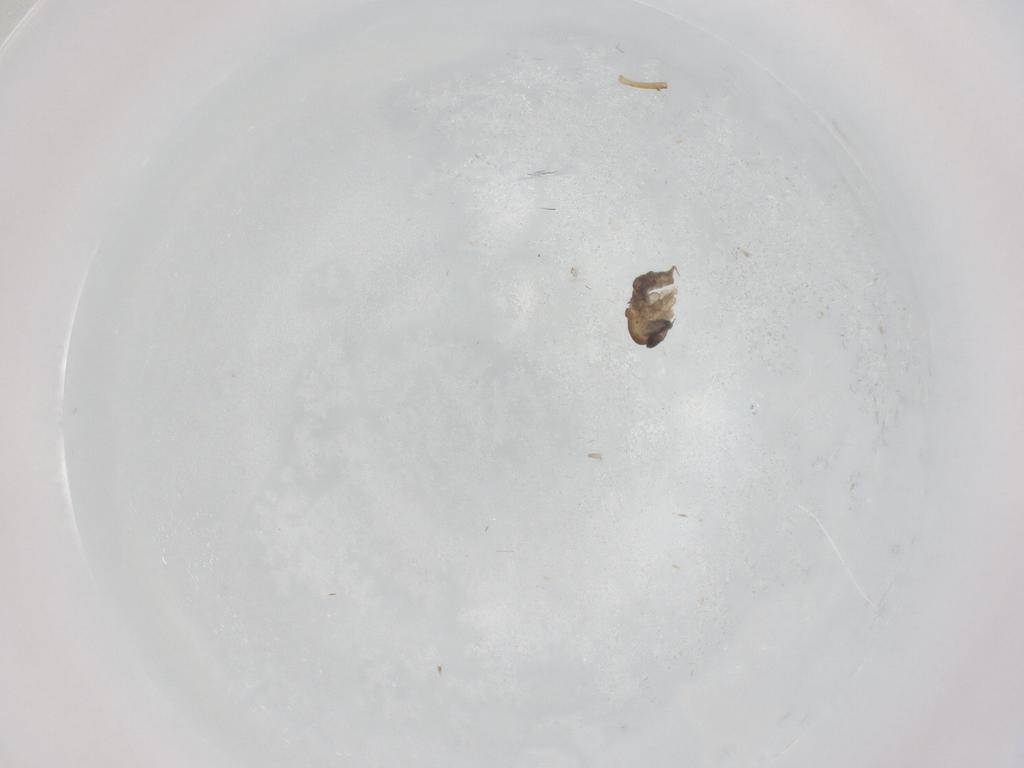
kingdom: Animalia
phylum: Arthropoda
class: Insecta
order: Diptera
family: Psychodidae
